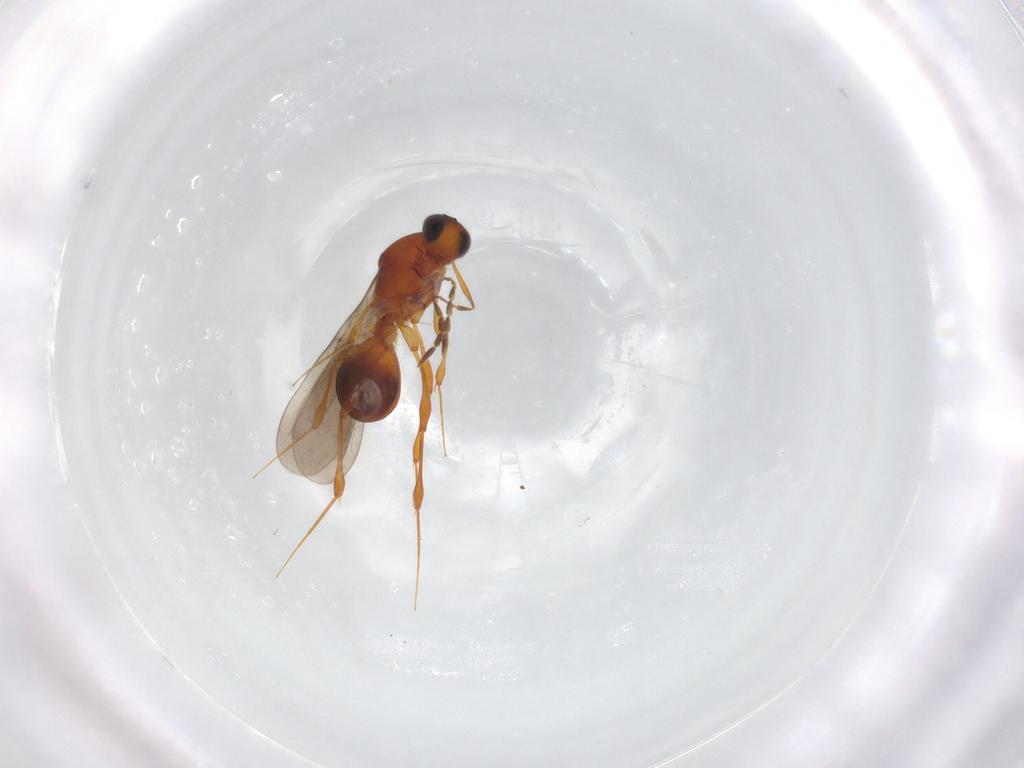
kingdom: Animalia
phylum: Arthropoda
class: Insecta
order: Hymenoptera
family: Platygastridae
